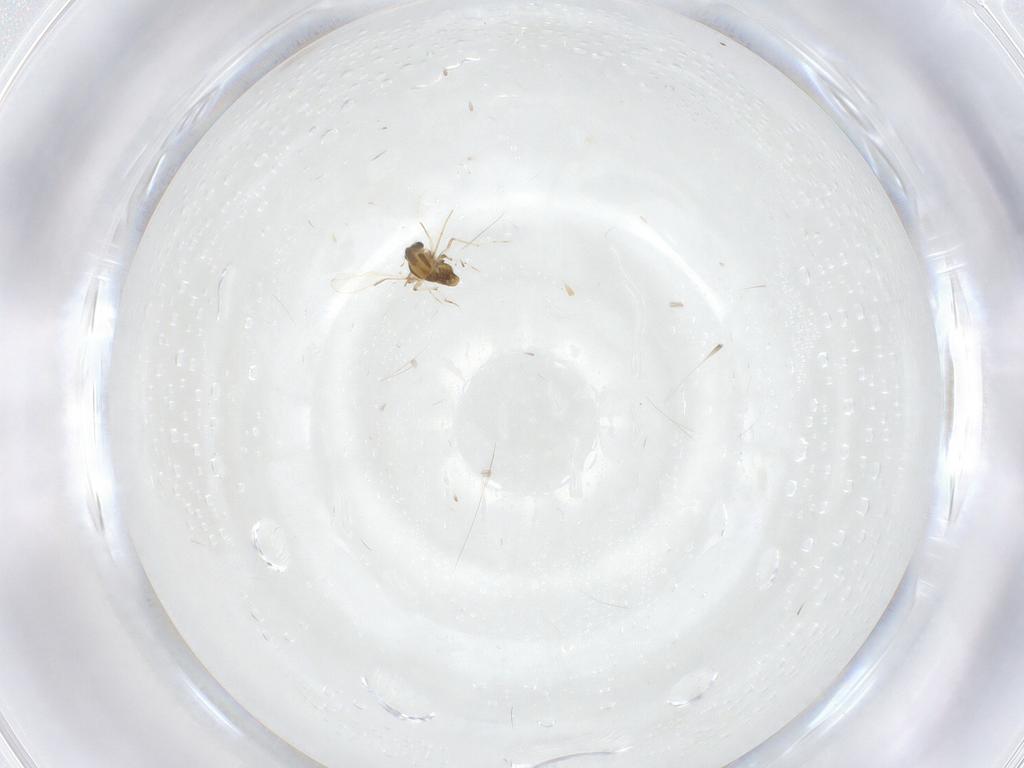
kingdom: Animalia
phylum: Arthropoda
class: Insecta
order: Diptera
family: Chironomidae
